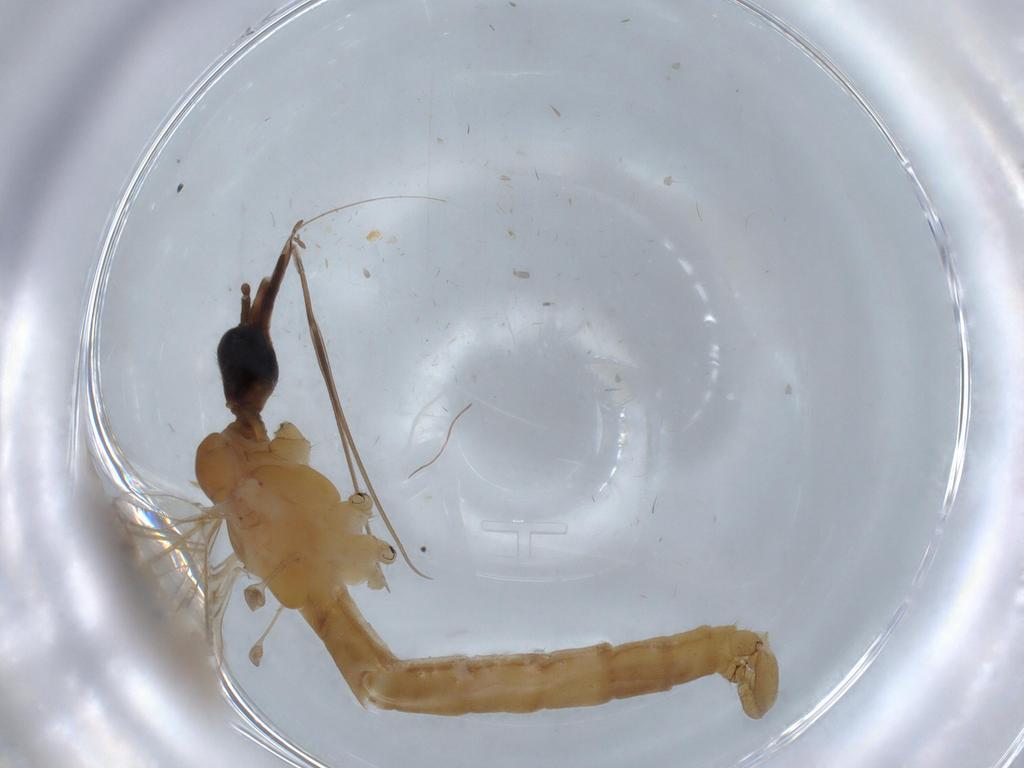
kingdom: Animalia
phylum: Arthropoda
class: Insecta
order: Diptera
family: Chironomidae
